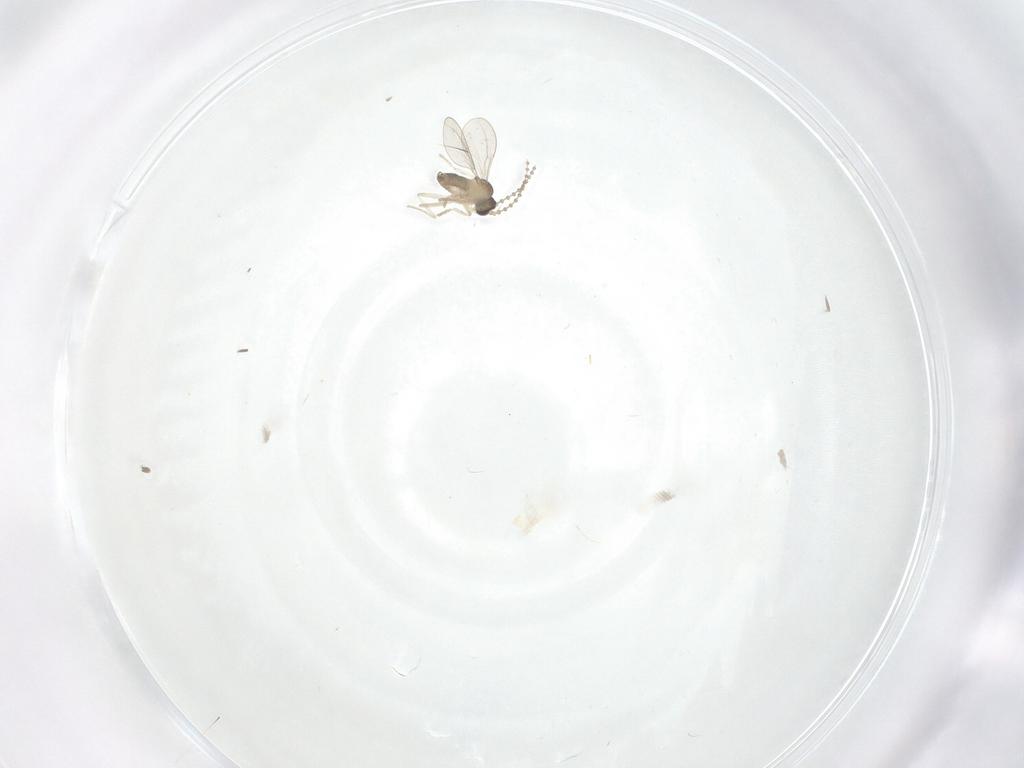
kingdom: Animalia
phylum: Arthropoda
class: Insecta
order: Diptera
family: Cecidomyiidae
